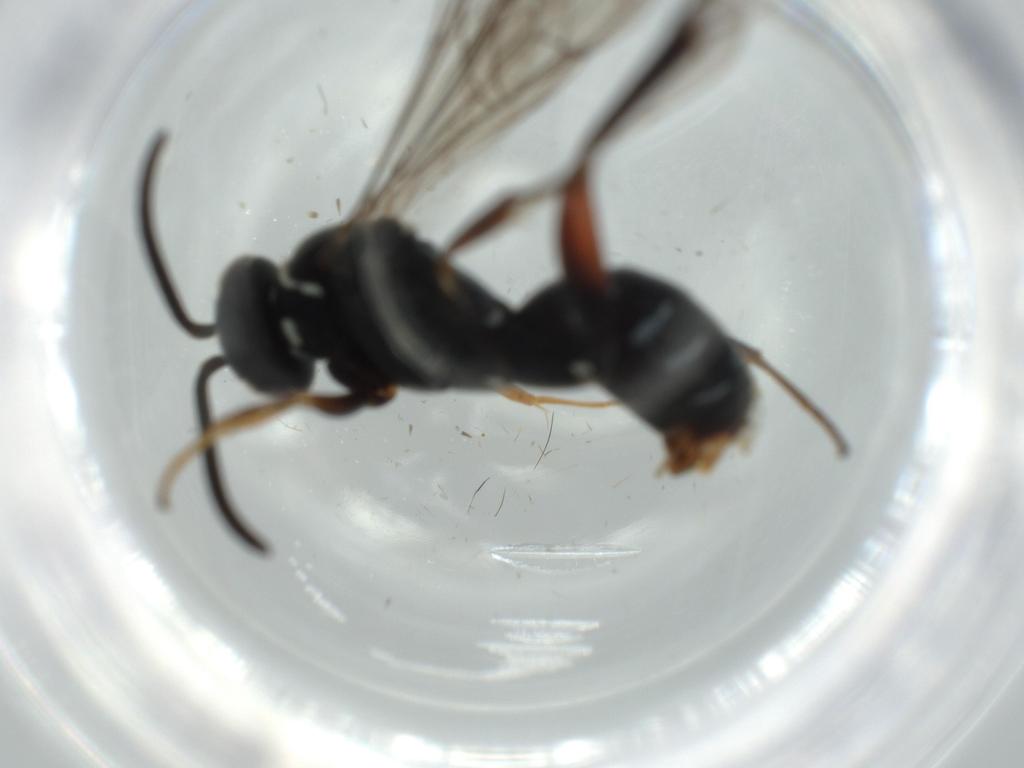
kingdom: Animalia
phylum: Arthropoda
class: Insecta
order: Hymenoptera
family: Pompilidae
